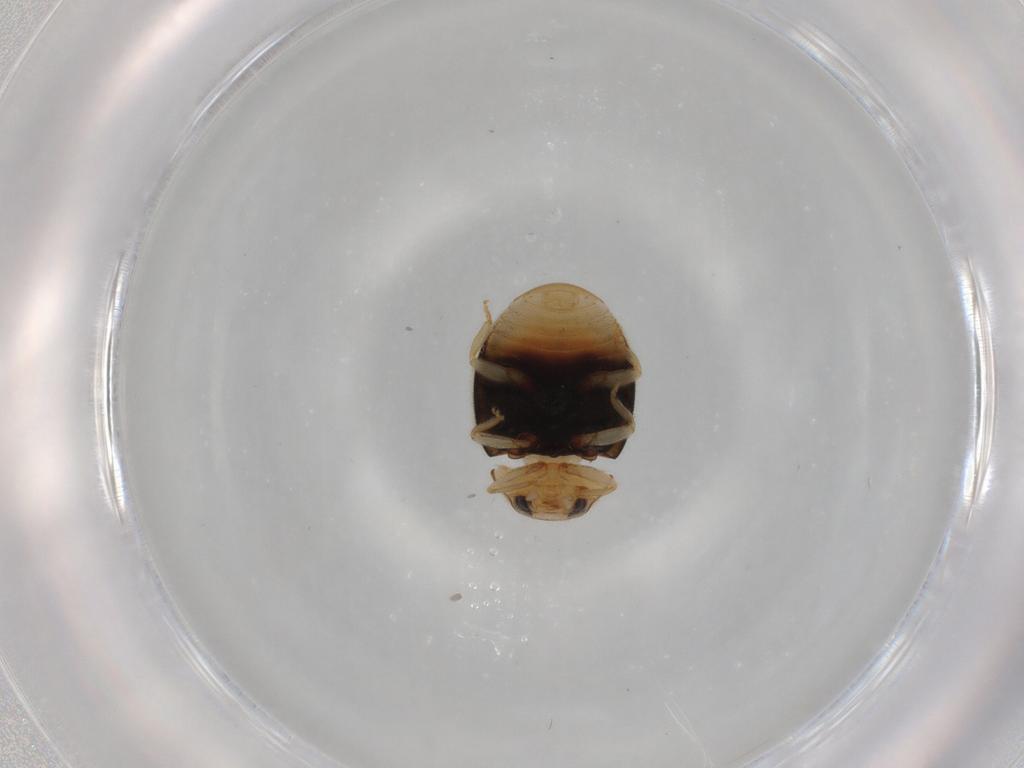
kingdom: Animalia
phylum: Arthropoda
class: Insecta
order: Coleoptera
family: Coccinellidae
